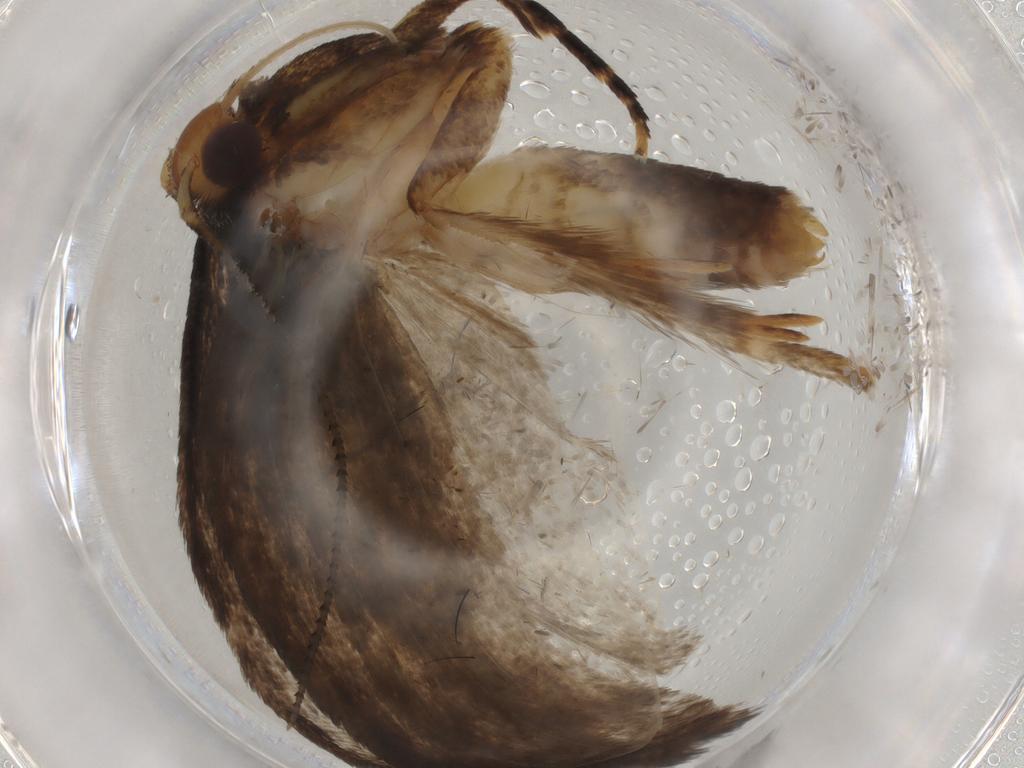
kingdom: Animalia
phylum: Arthropoda
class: Insecta
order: Lepidoptera
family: Oecophoridae
